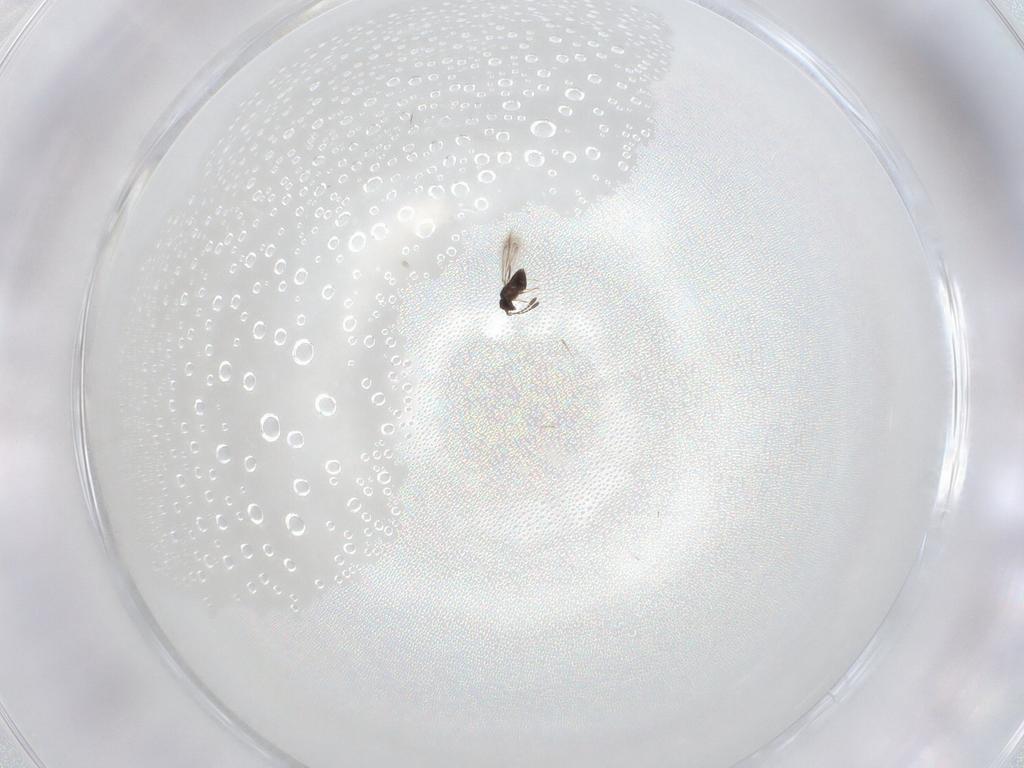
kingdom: Animalia
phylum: Arthropoda
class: Insecta
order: Hymenoptera
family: Mymaridae
